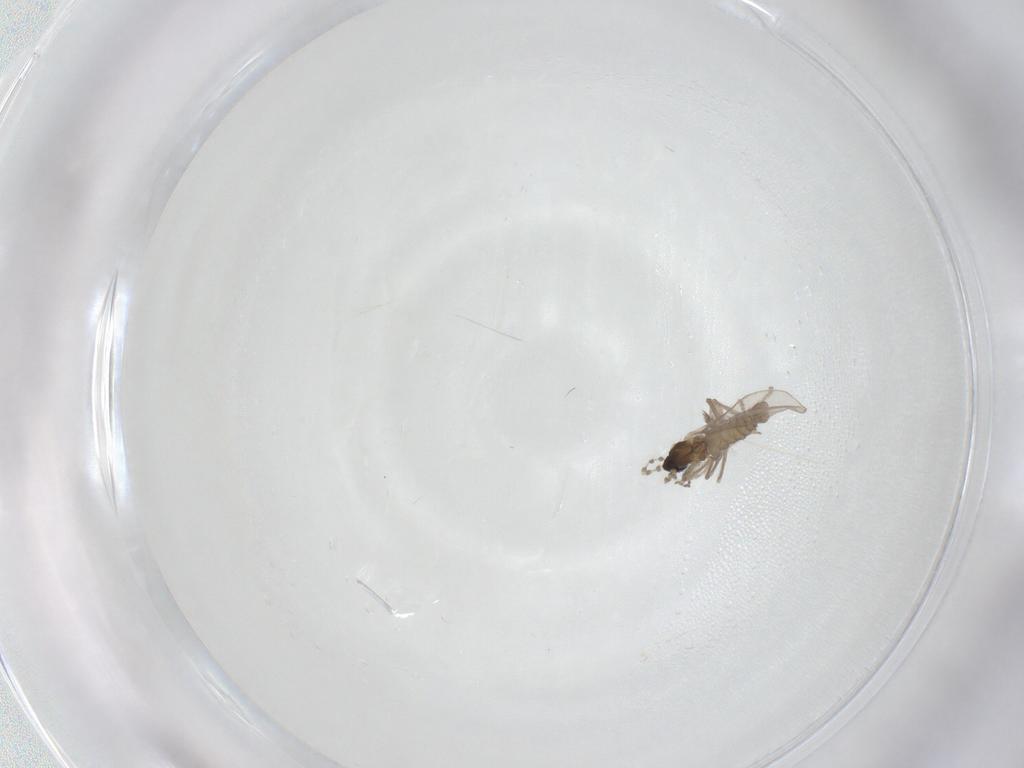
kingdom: Animalia
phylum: Arthropoda
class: Insecta
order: Diptera
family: Cecidomyiidae
